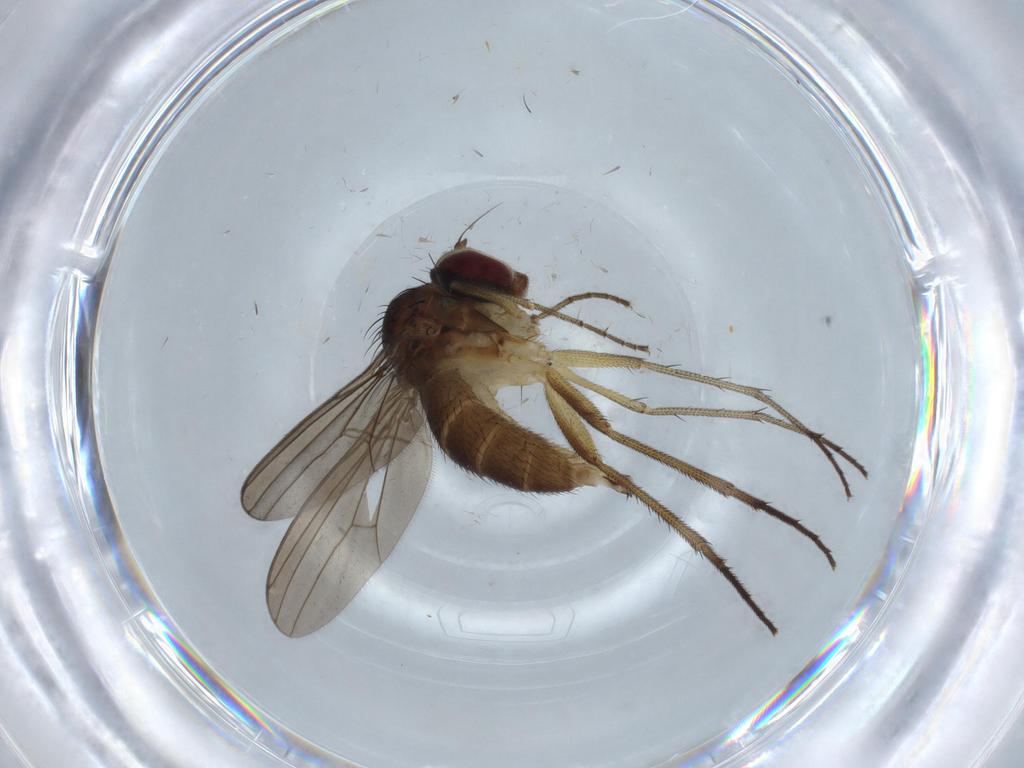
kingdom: Animalia
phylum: Arthropoda
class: Insecta
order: Diptera
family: Dolichopodidae
